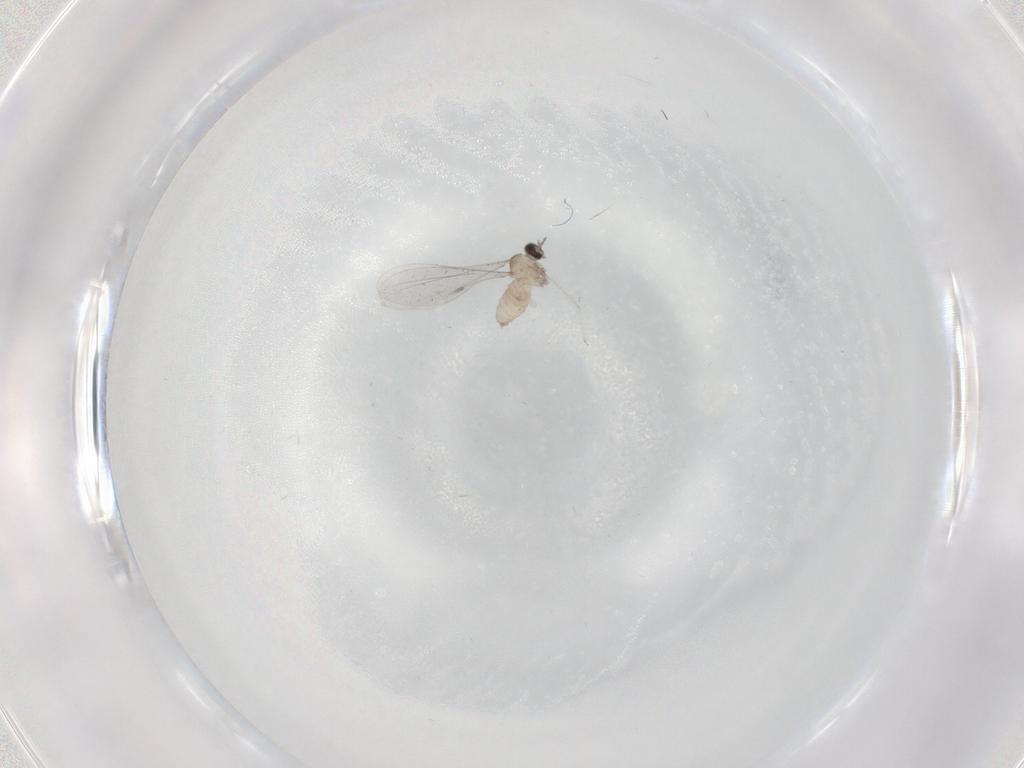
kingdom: Animalia
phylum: Arthropoda
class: Insecta
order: Diptera
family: Cecidomyiidae
